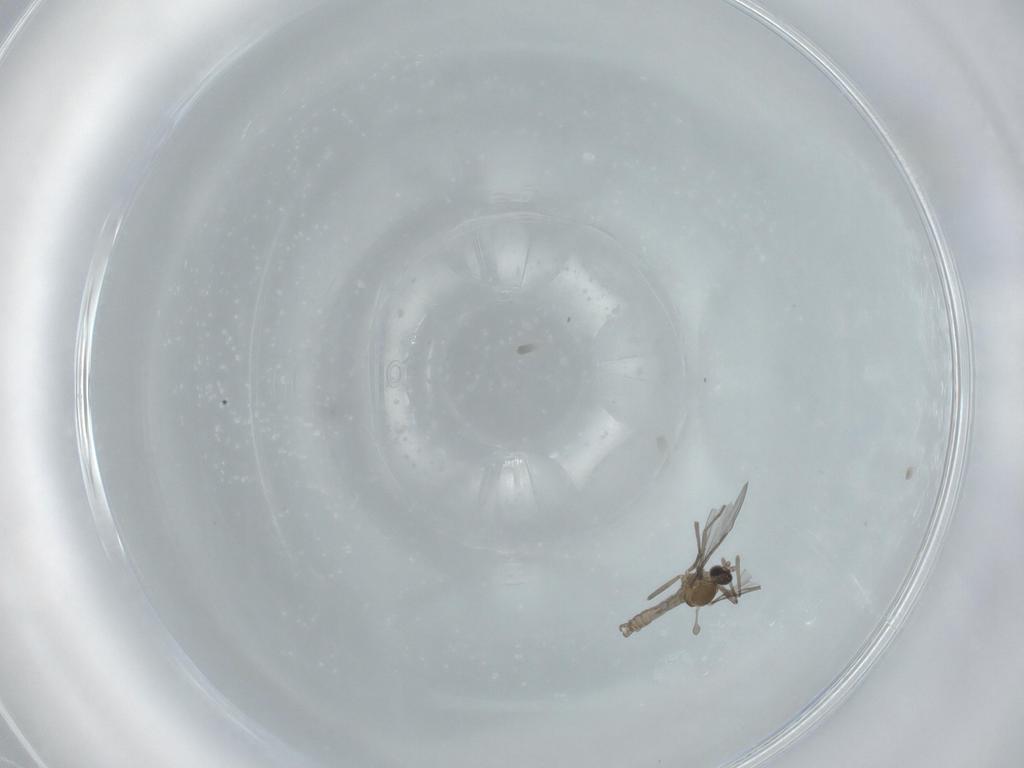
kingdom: Animalia
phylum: Arthropoda
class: Insecta
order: Diptera
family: Cecidomyiidae
